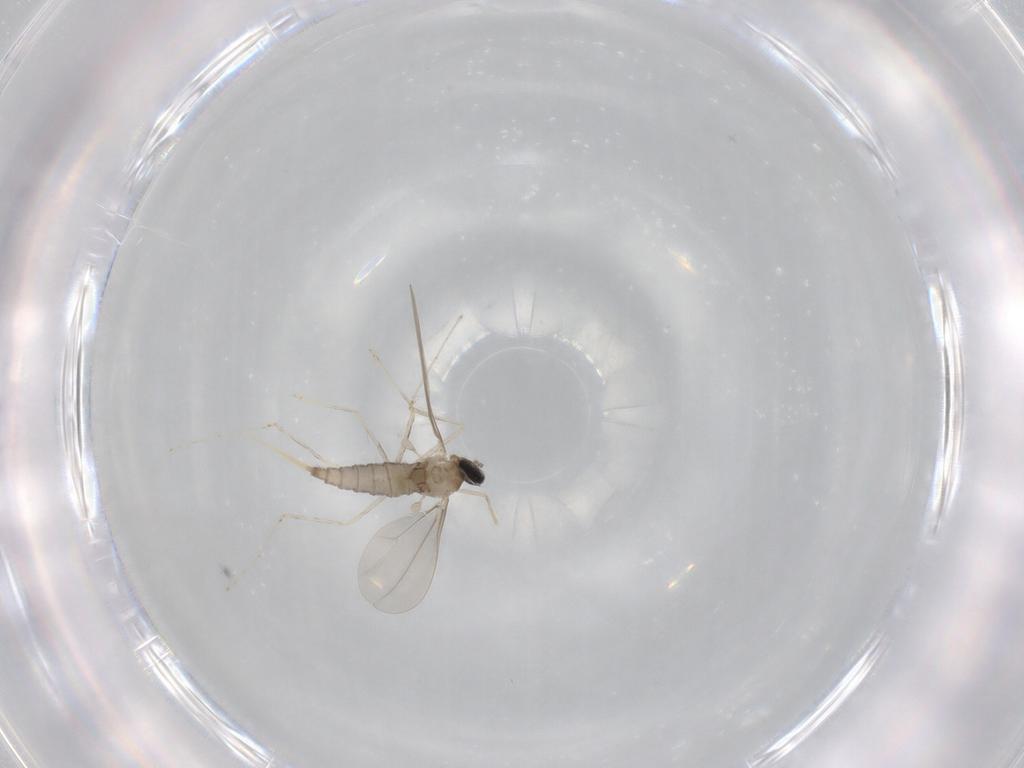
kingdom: Animalia
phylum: Arthropoda
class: Insecta
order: Diptera
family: Cecidomyiidae
